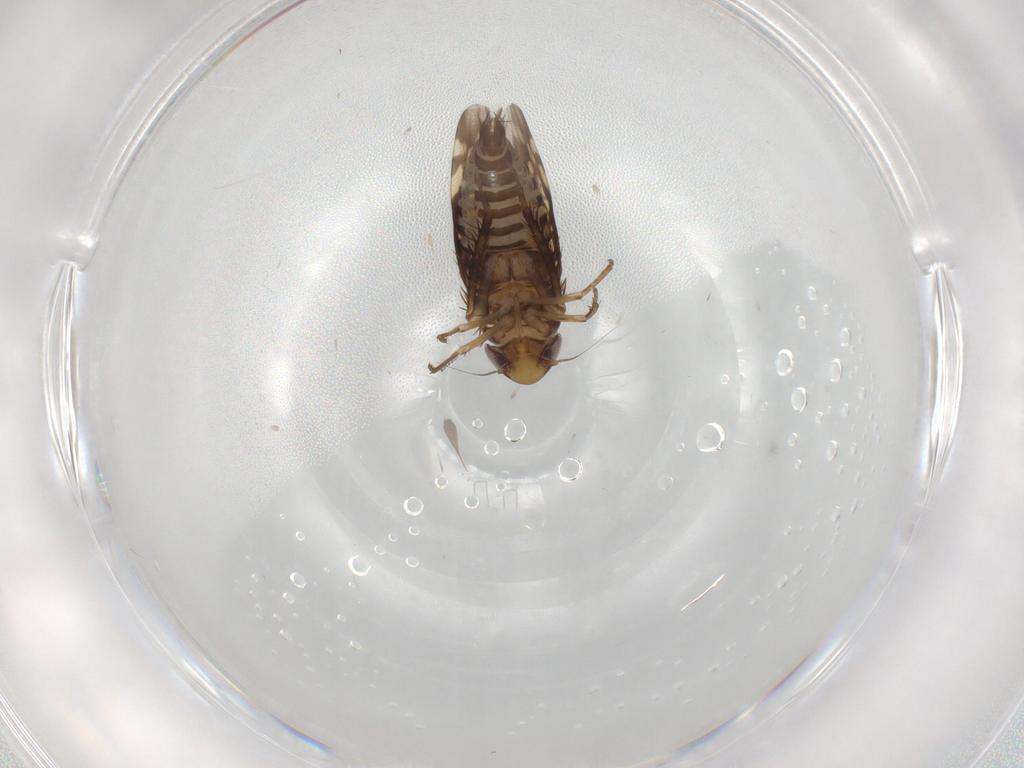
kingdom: Animalia
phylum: Arthropoda
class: Insecta
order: Hemiptera
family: Cicadellidae
